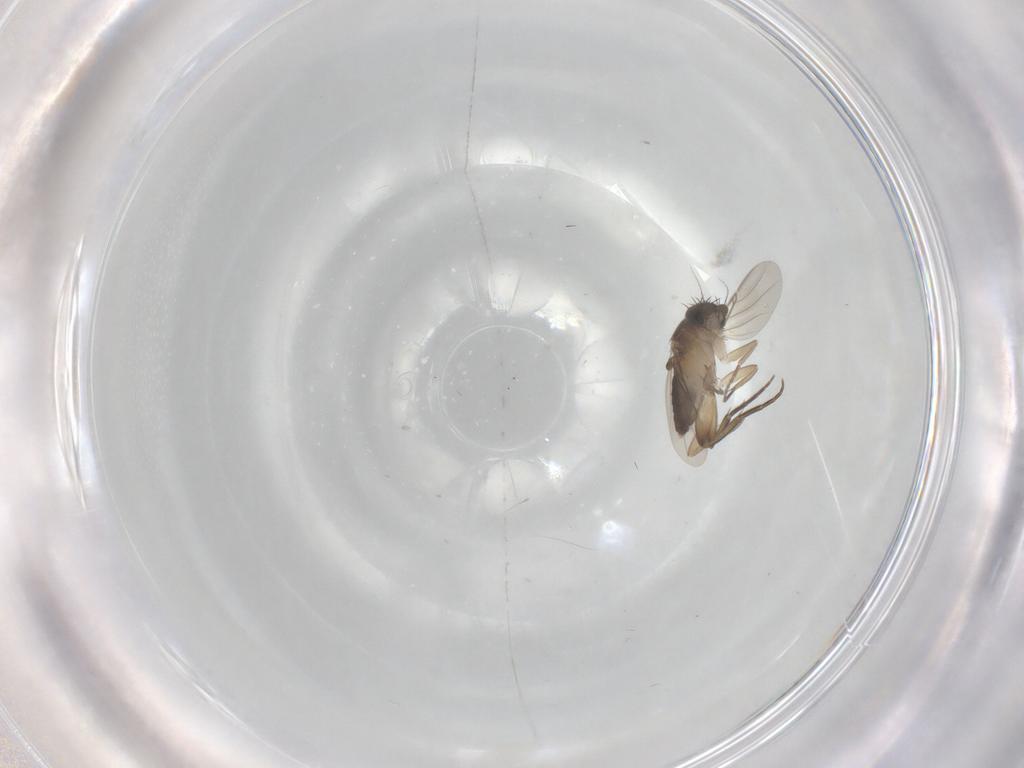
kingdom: Animalia
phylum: Arthropoda
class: Insecta
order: Diptera
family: Phoridae
